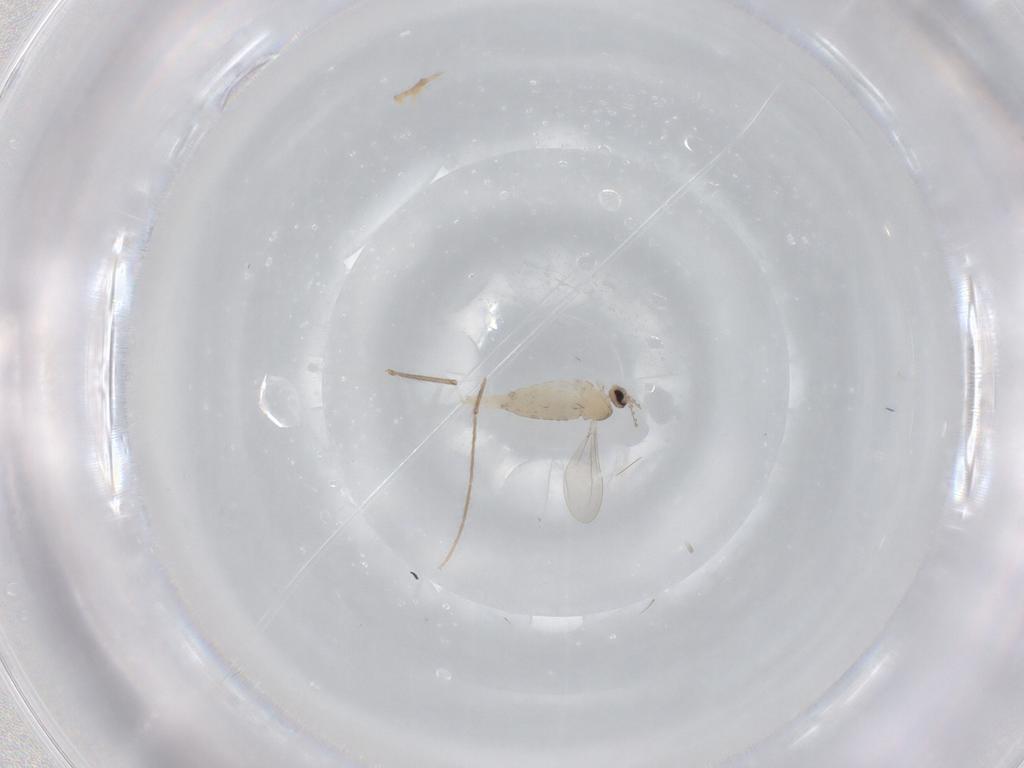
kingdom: Animalia
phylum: Arthropoda
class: Insecta
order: Diptera
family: Cecidomyiidae
